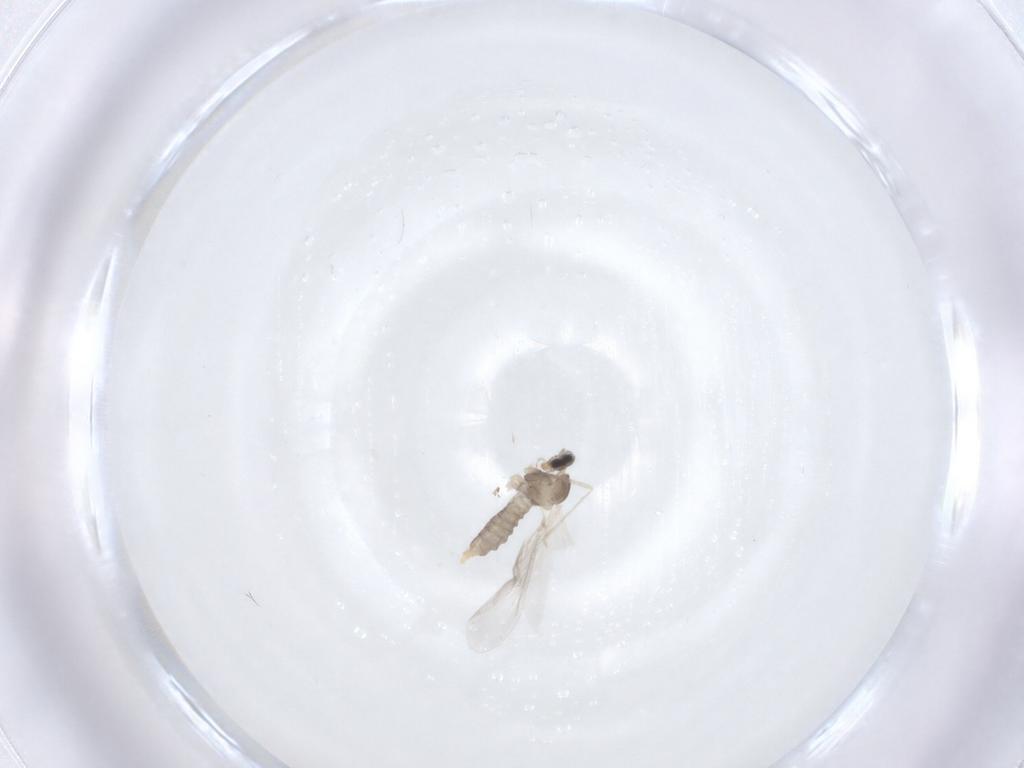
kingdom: Animalia
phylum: Arthropoda
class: Insecta
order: Diptera
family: Cecidomyiidae
